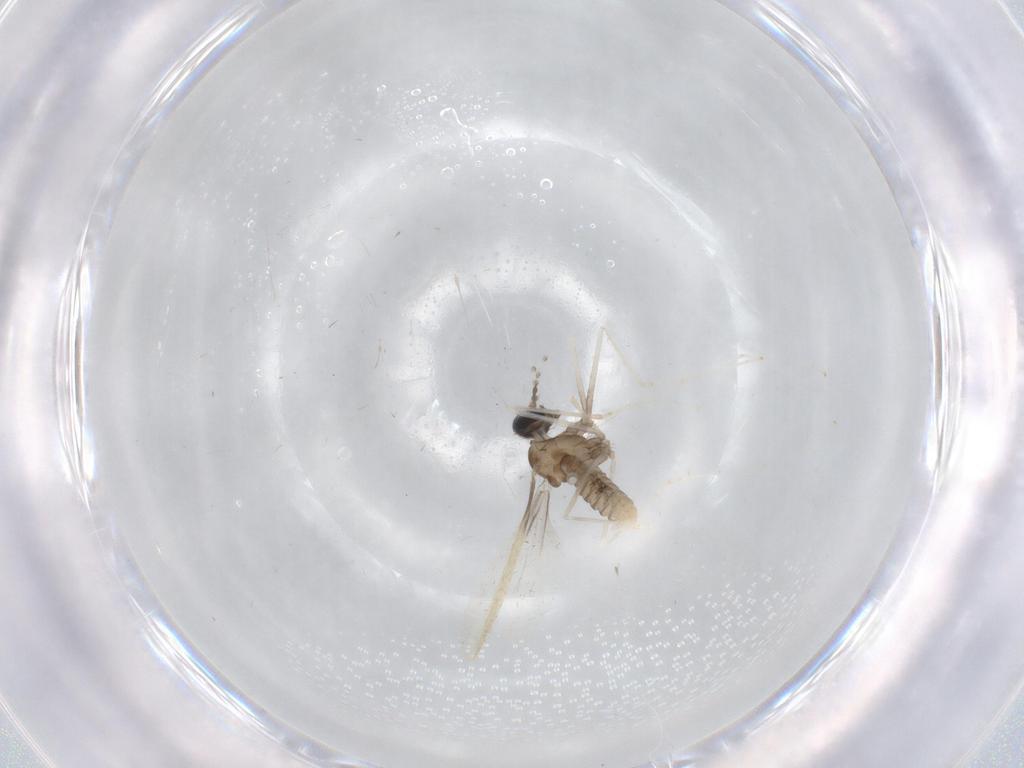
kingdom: Animalia
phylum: Arthropoda
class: Insecta
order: Diptera
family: Cecidomyiidae
